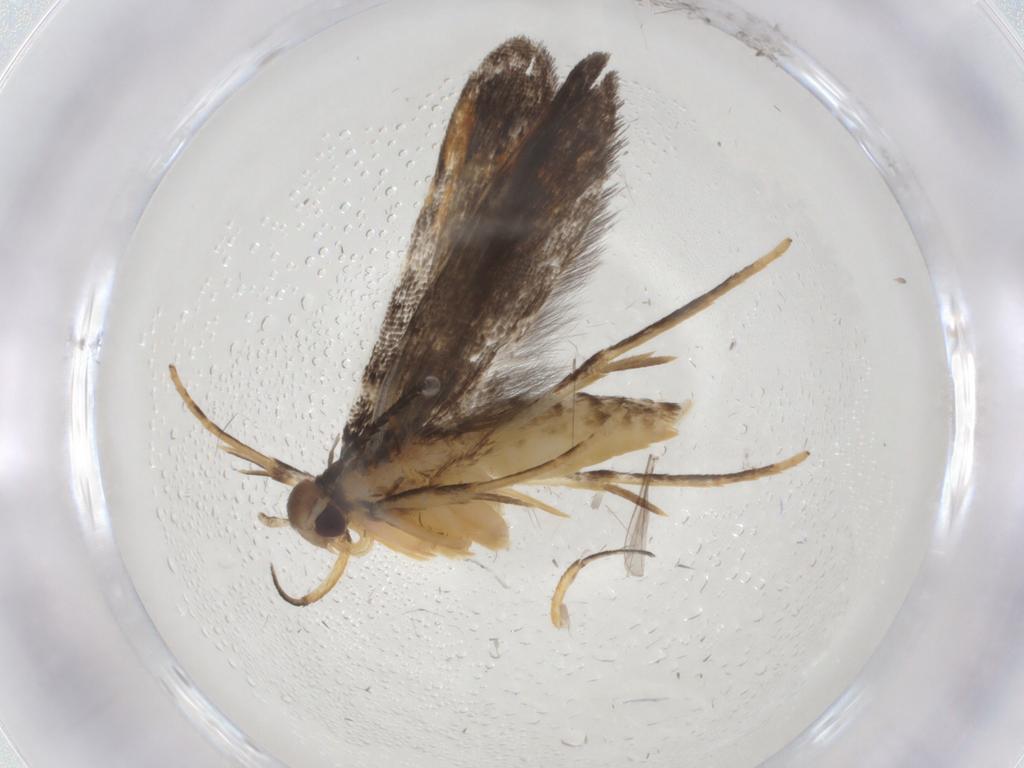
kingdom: Animalia
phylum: Arthropoda
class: Insecta
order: Lepidoptera
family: Gelechiidae
